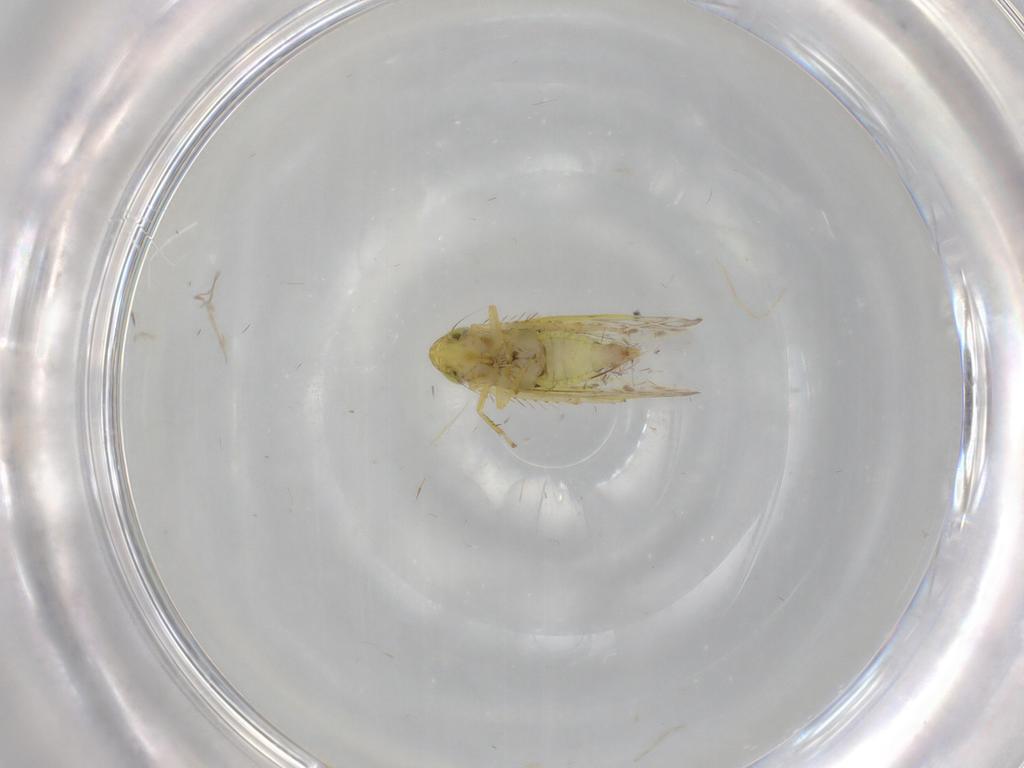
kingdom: Animalia
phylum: Arthropoda
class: Insecta
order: Hemiptera
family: Cicadellidae
